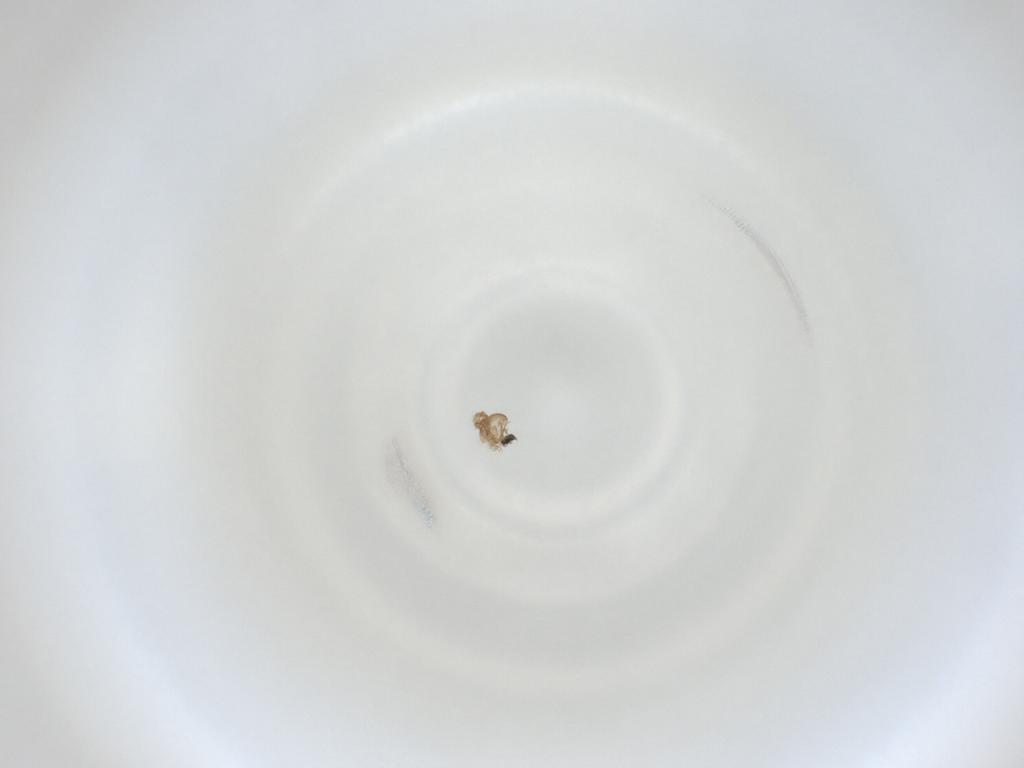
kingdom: Animalia
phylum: Arthropoda
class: Insecta
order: Diptera
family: Cecidomyiidae
